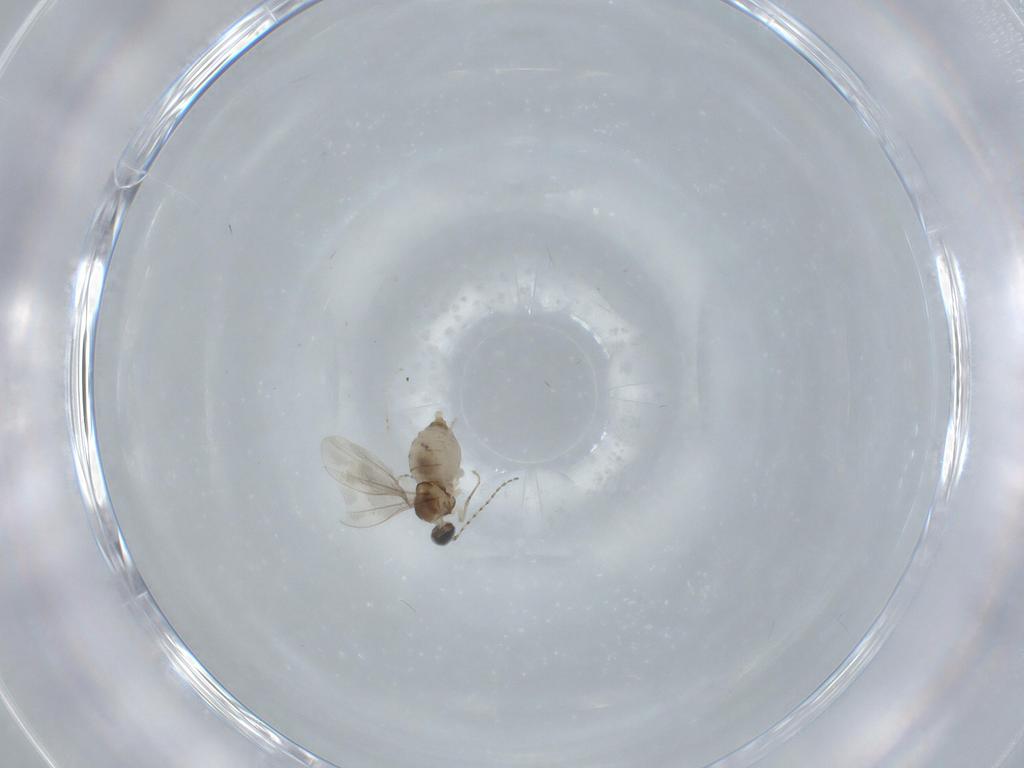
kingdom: Animalia
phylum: Arthropoda
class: Insecta
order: Diptera
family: Cecidomyiidae
